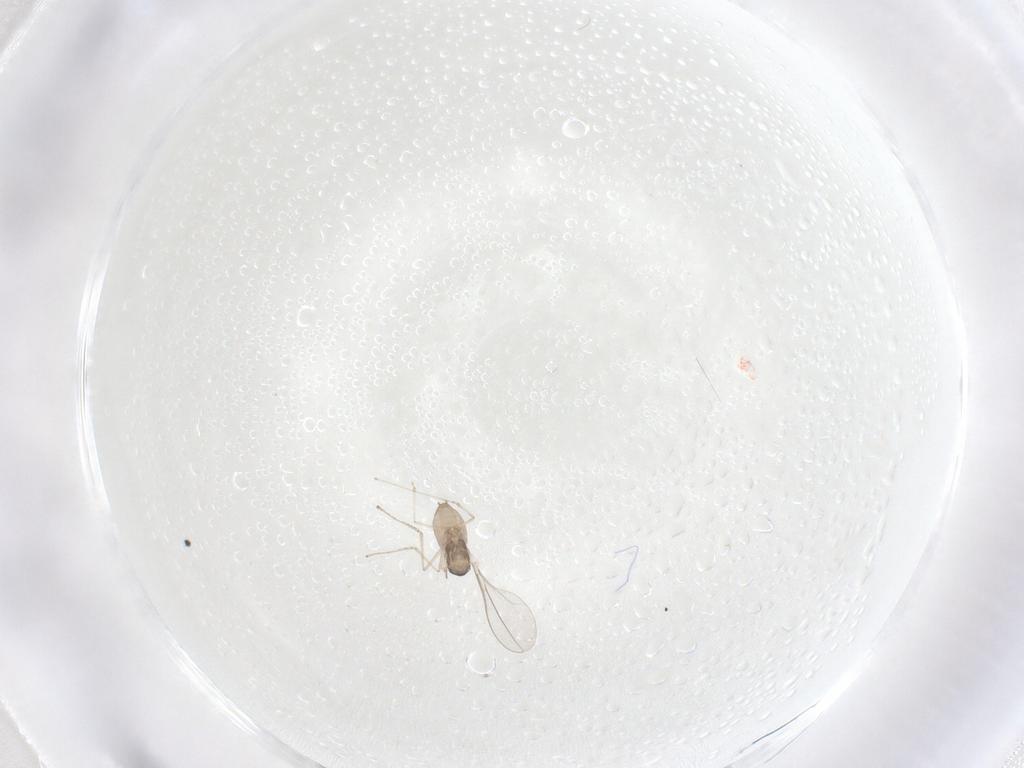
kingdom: Animalia
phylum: Arthropoda
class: Insecta
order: Diptera
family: Cecidomyiidae
